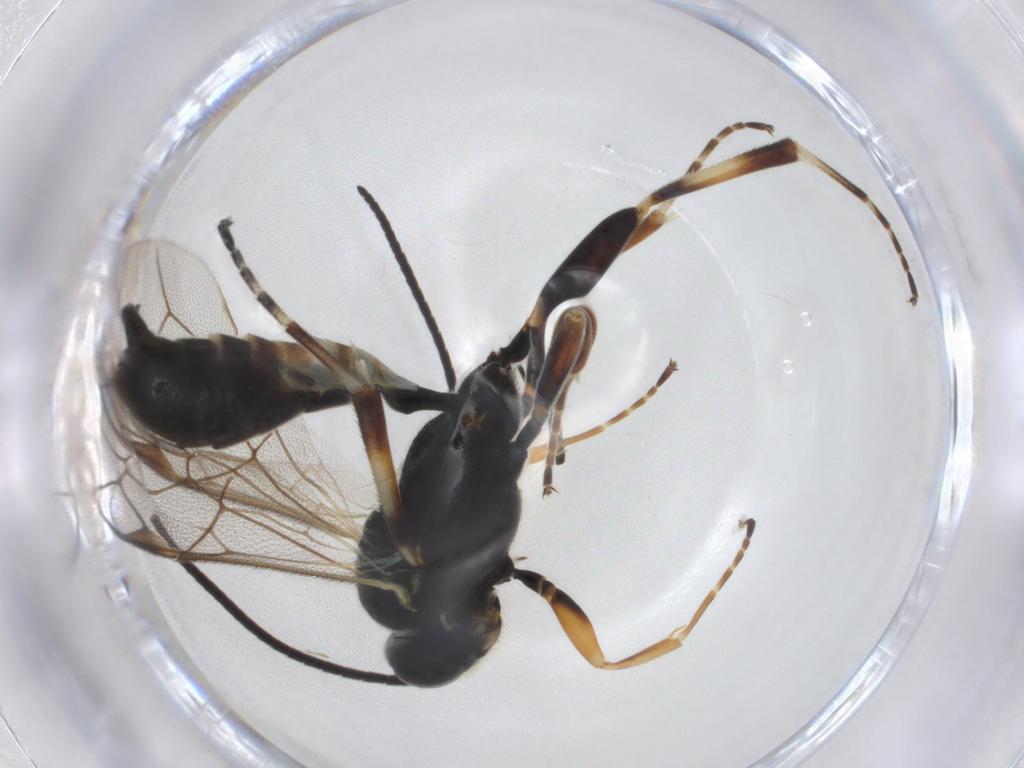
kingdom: Animalia
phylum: Arthropoda
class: Insecta
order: Hymenoptera
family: Ichneumonidae
